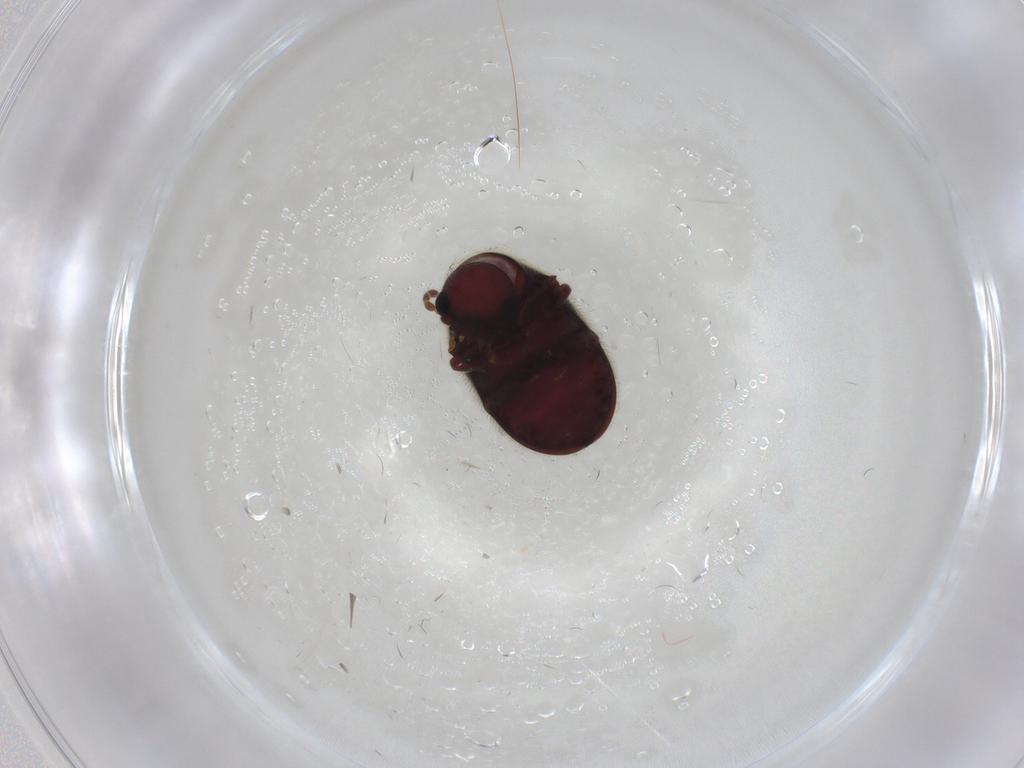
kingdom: Animalia
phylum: Arthropoda
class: Insecta
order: Coleoptera
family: Ptinidae
